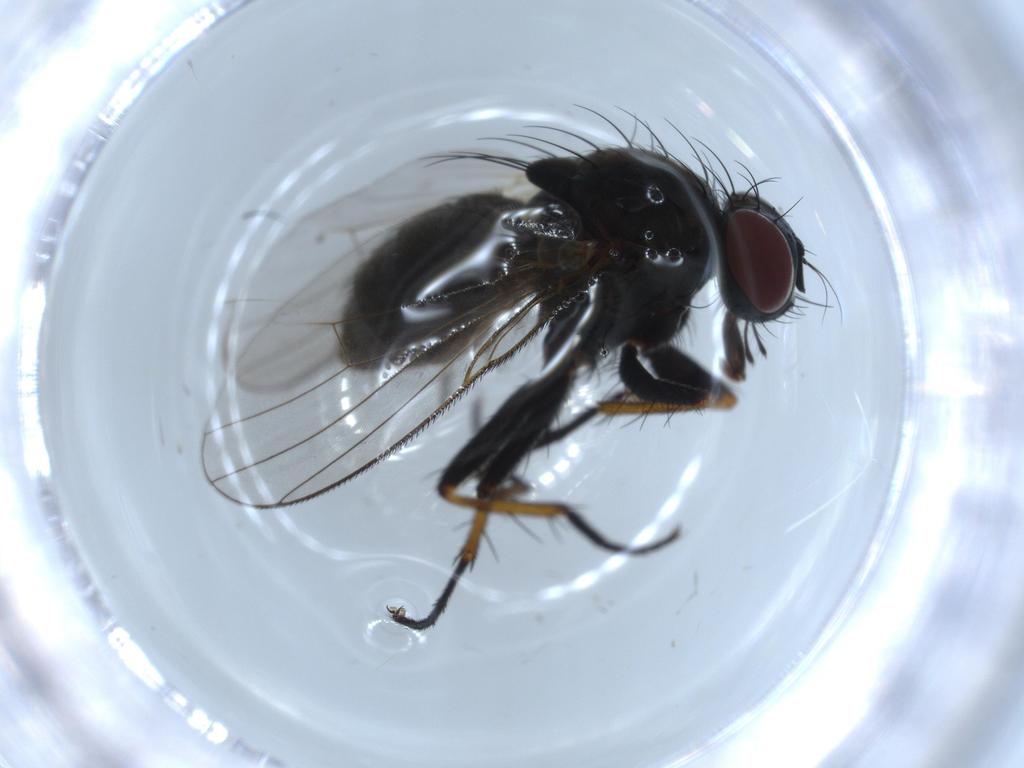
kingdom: Animalia
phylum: Arthropoda
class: Insecta
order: Diptera
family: Muscidae
